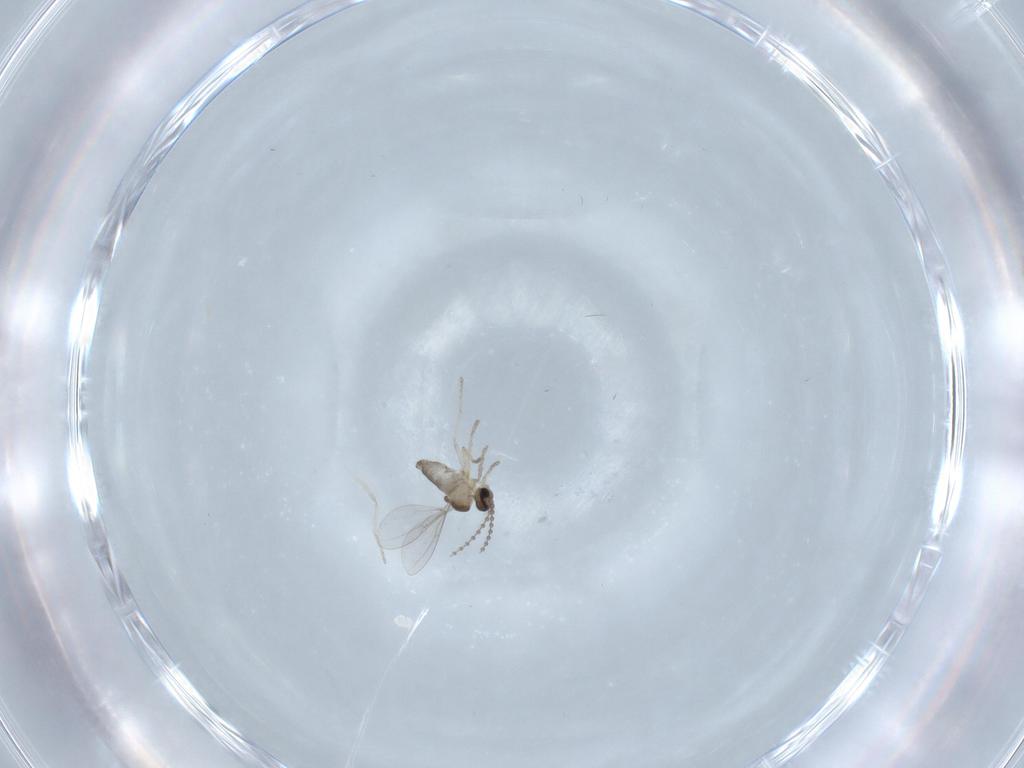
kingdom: Animalia
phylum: Arthropoda
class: Insecta
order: Diptera
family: Cecidomyiidae
